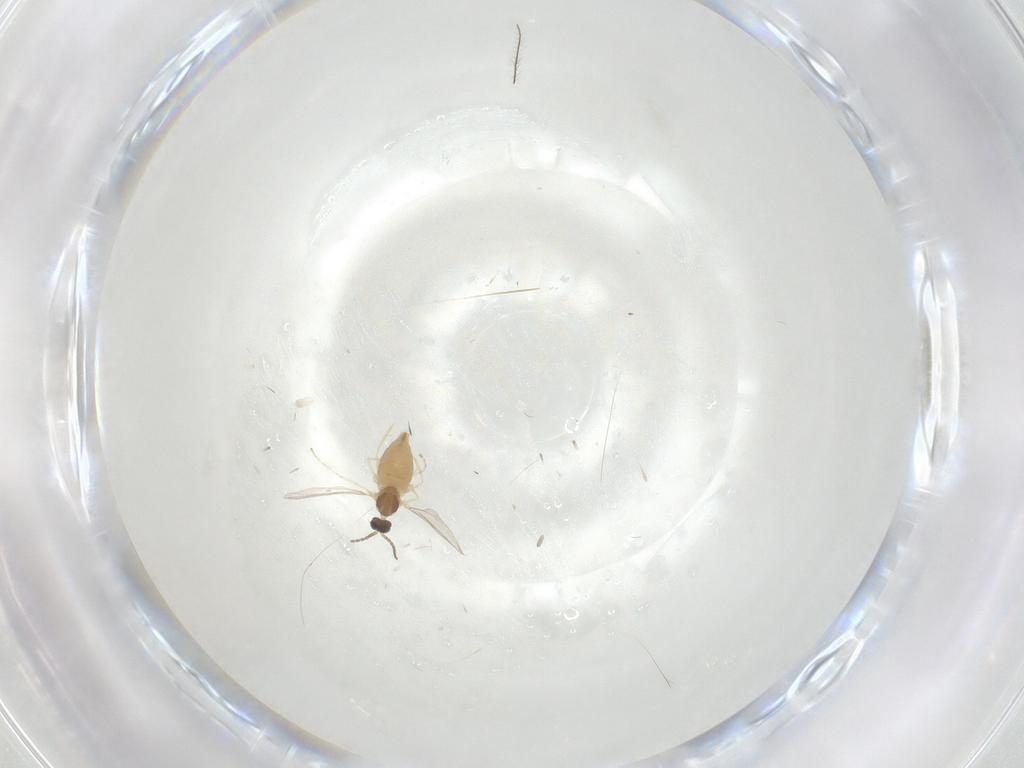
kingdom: Animalia
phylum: Arthropoda
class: Insecta
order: Diptera
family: Cecidomyiidae
